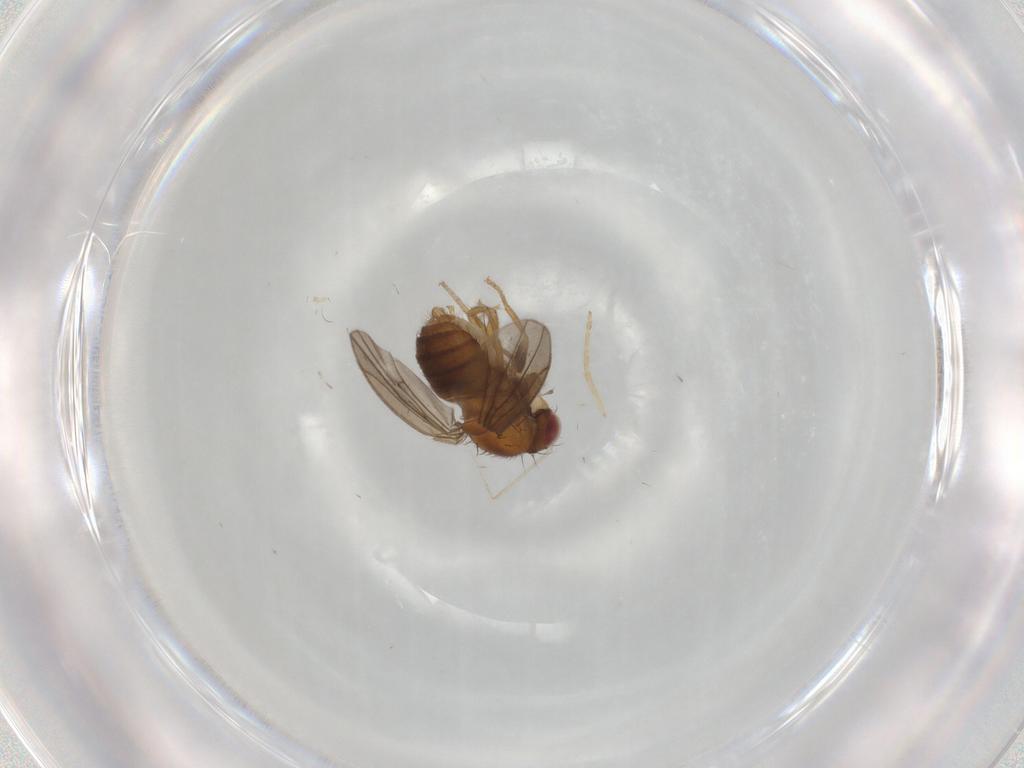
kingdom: Animalia
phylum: Arthropoda
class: Insecta
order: Diptera
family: Drosophilidae
